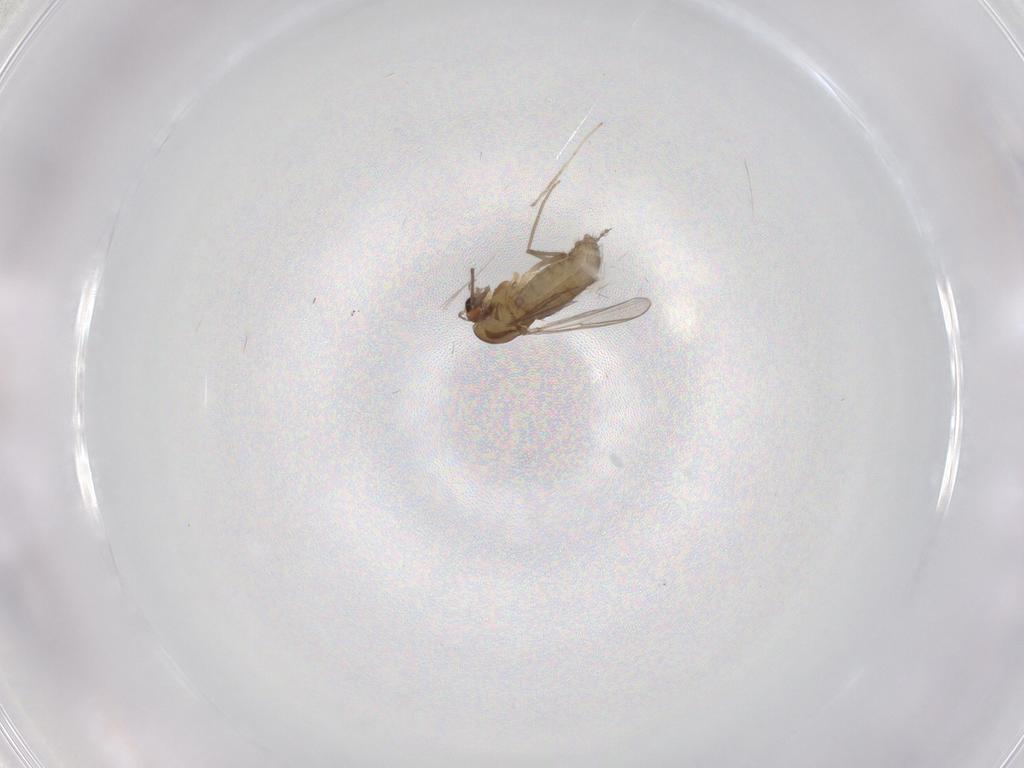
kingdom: Animalia
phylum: Arthropoda
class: Insecta
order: Diptera
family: Chironomidae
